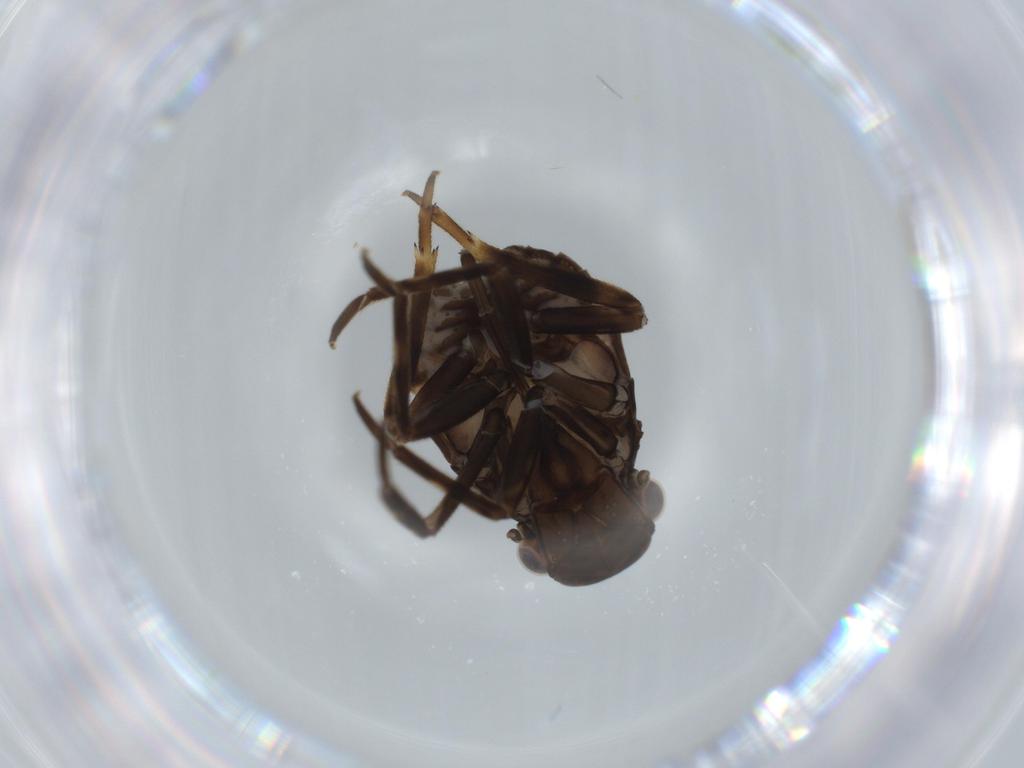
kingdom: Animalia
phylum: Arthropoda
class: Insecta
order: Hemiptera
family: Fulgoridae
